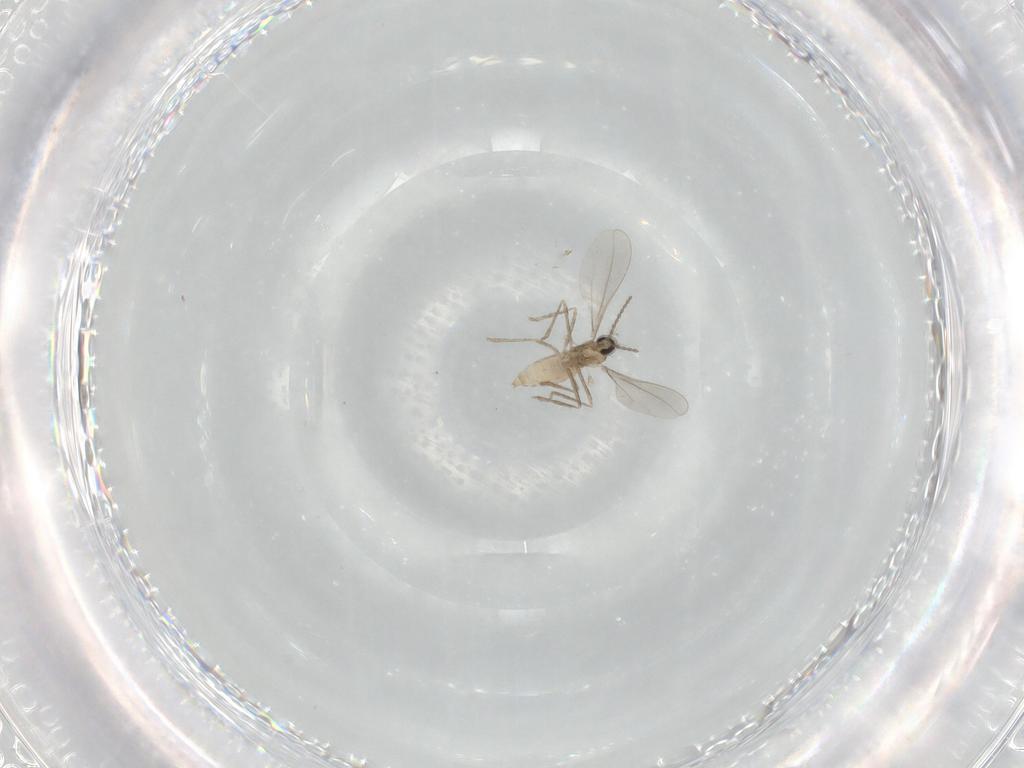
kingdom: Animalia
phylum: Arthropoda
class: Insecta
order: Diptera
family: Cecidomyiidae
